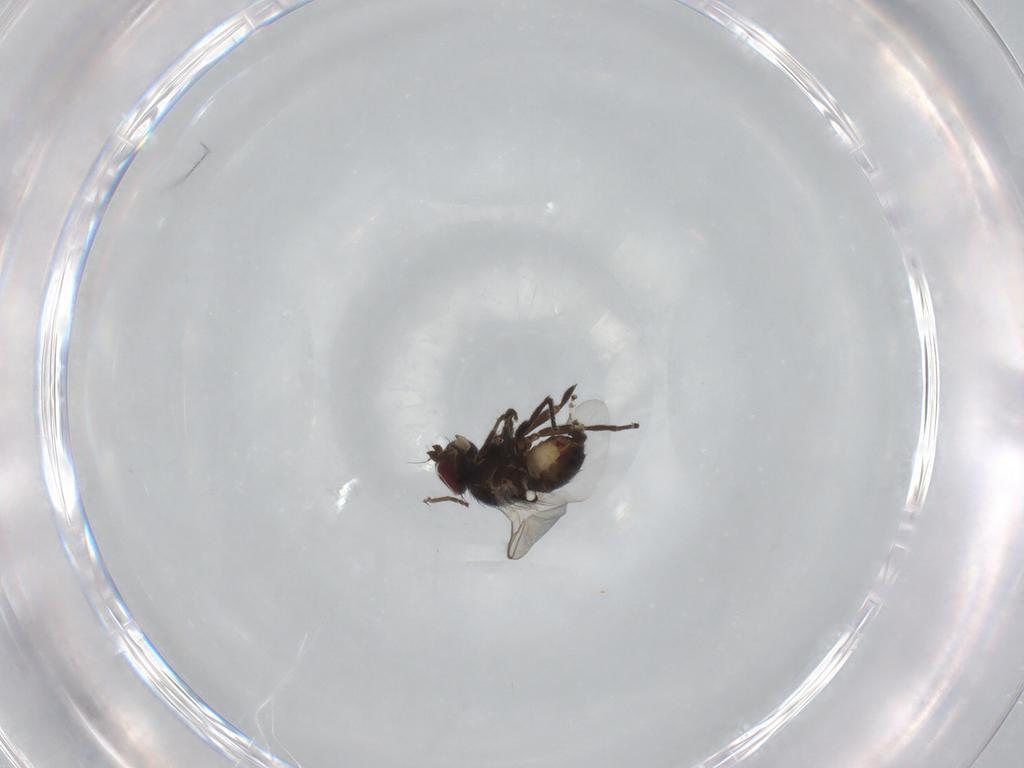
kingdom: Animalia
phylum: Arthropoda
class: Insecta
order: Diptera
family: Agromyzidae
